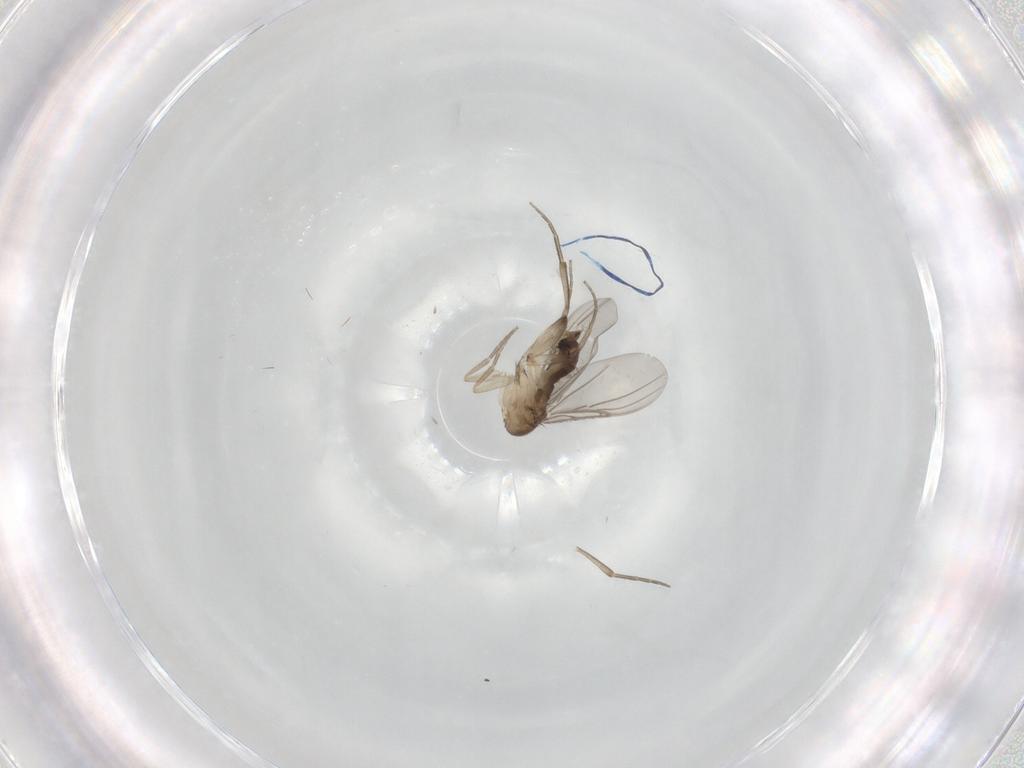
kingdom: Animalia
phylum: Arthropoda
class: Insecta
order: Diptera
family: Phoridae
